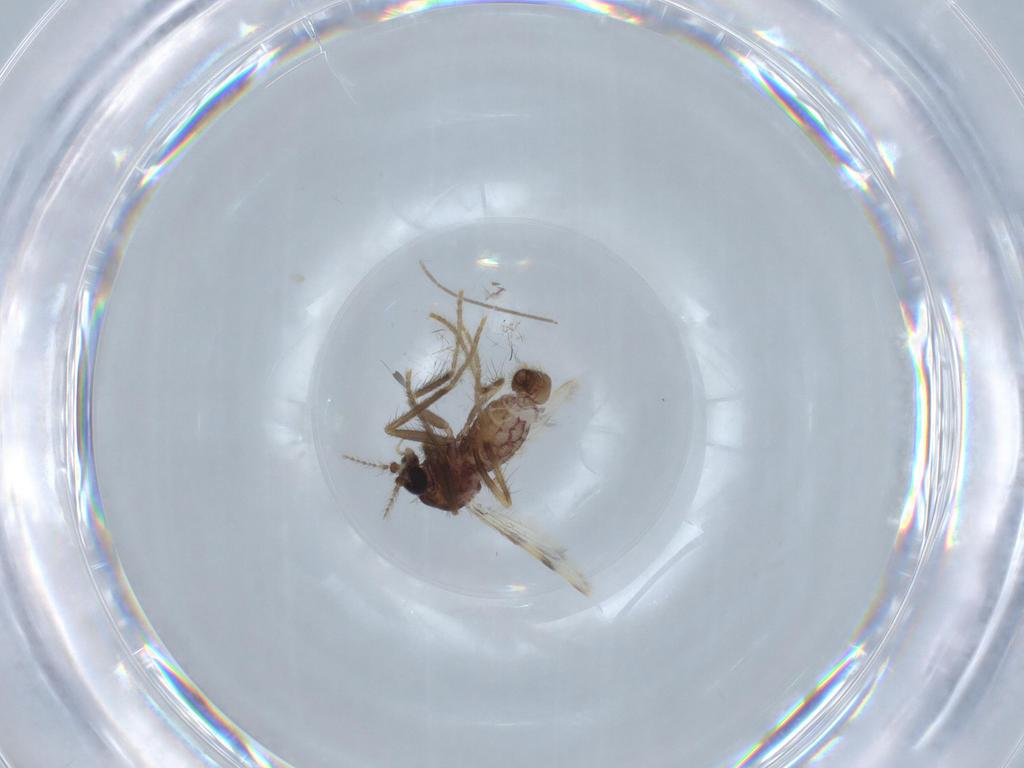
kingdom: Animalia
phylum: Arthropoda
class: Insecta
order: Diptera
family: Corethrellidae
